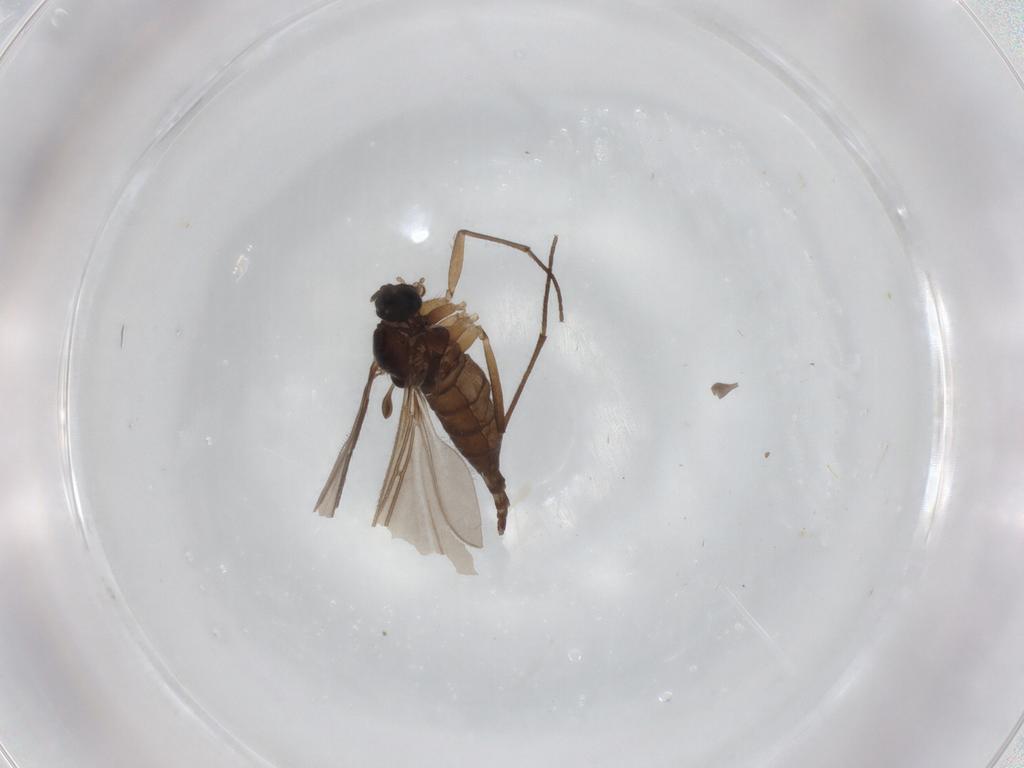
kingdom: Animalia
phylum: Arthropoda
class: Insecta
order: Diptera
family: Sciaridae
